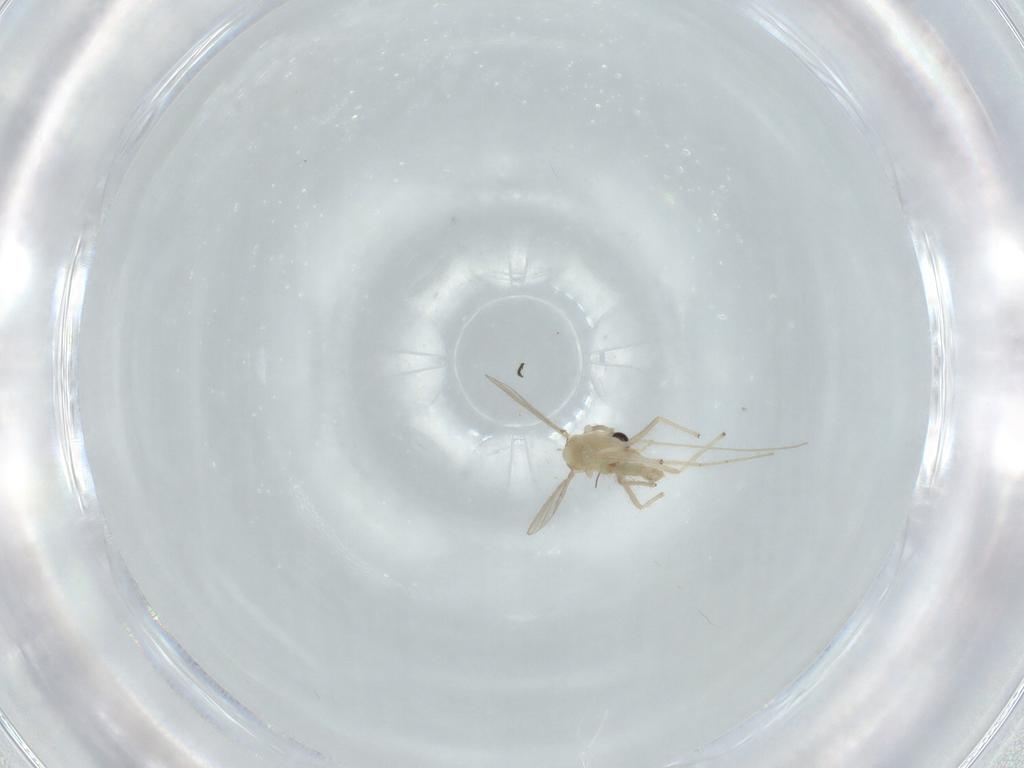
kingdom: Animalia
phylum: Arthropoda
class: Insecta
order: Diptera
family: Chironomidae
